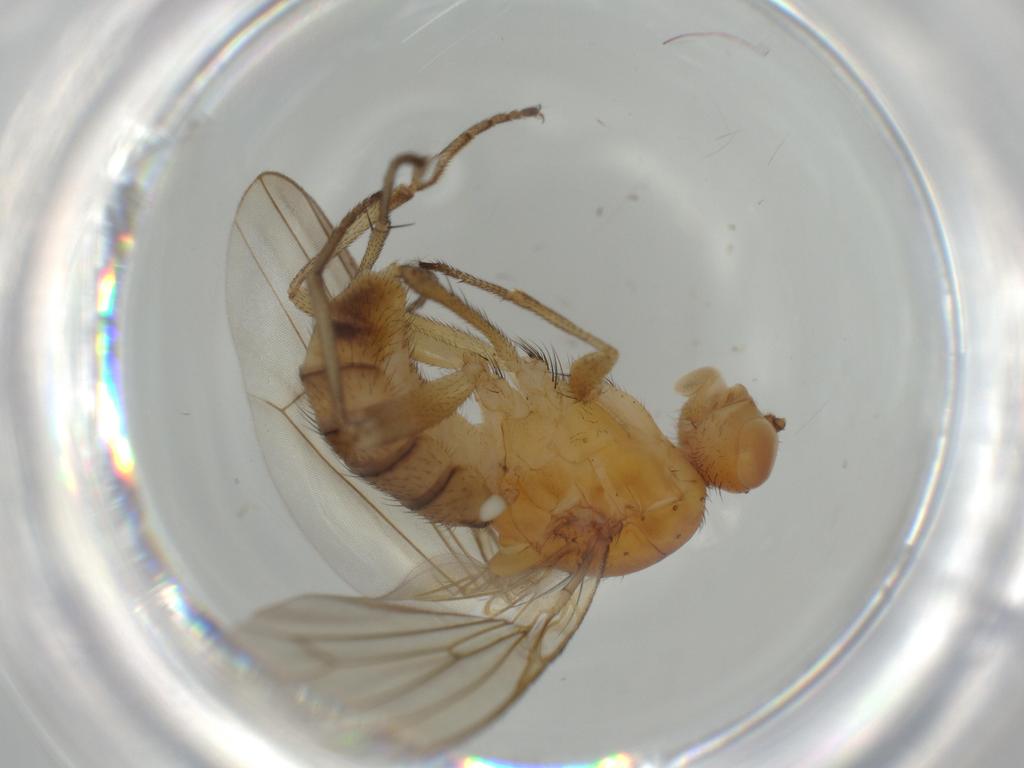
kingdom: Animalia
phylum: Arthropoda
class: Insecta
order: Diptera
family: Heleomyzidae
